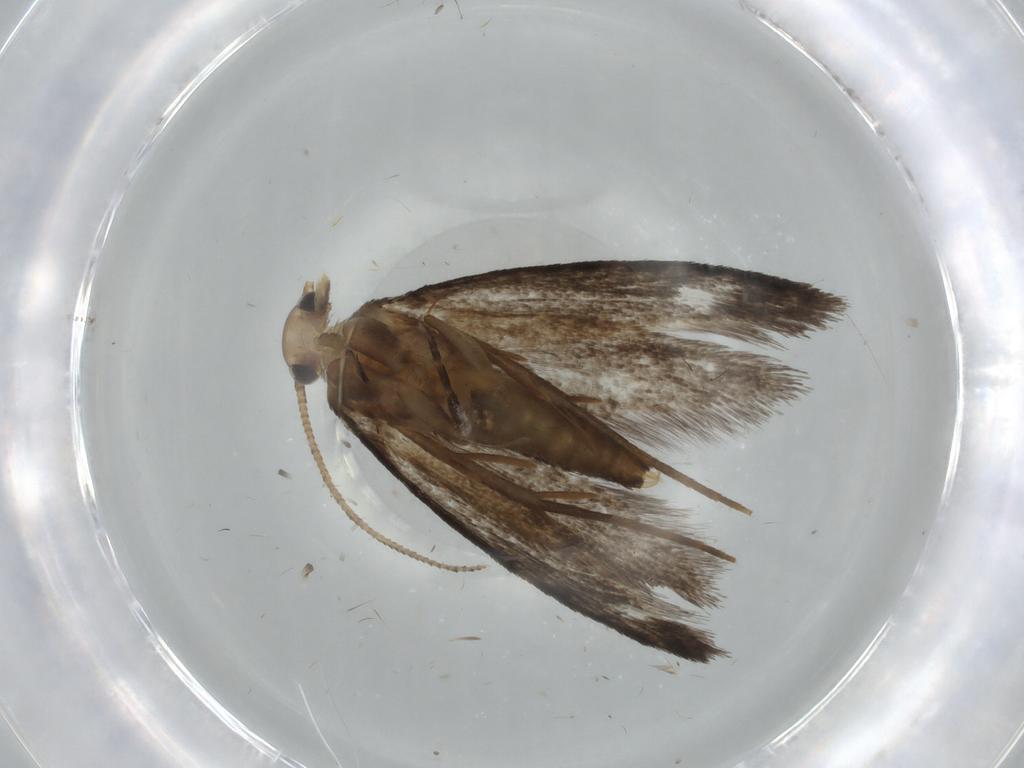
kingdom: Animalia
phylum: Arthropoda
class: Insecta
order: Lepidoptera
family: Tineidae
